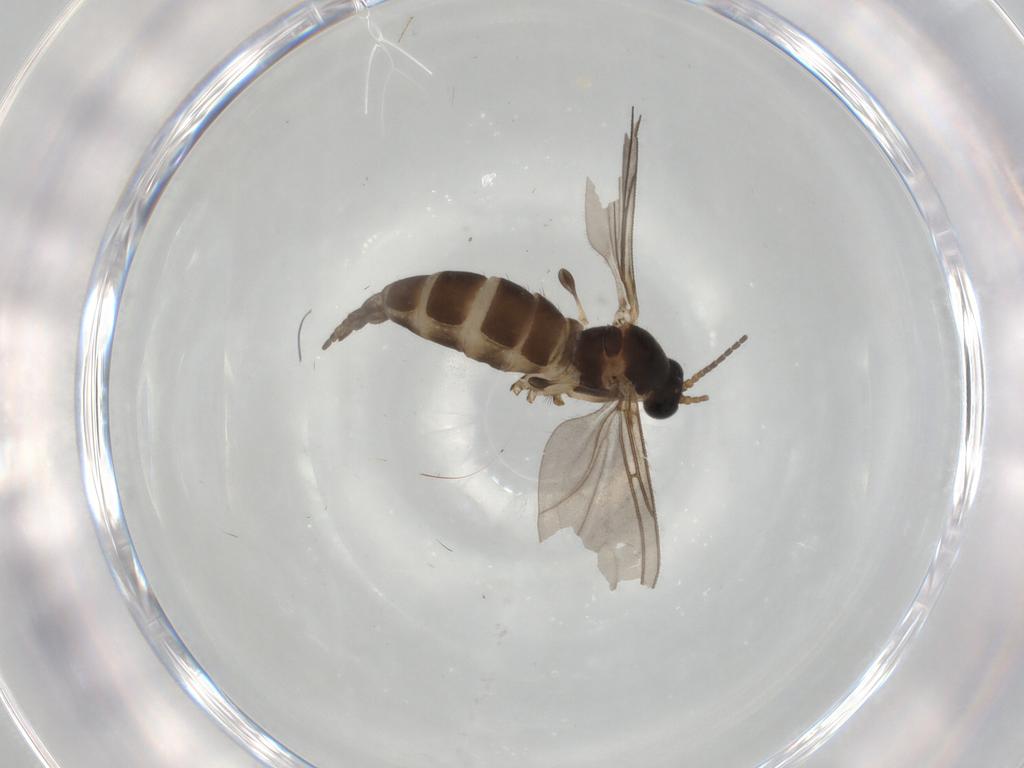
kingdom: Animalia
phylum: Arthropoda
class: Insecta
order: Diptera
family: Sciaridae
